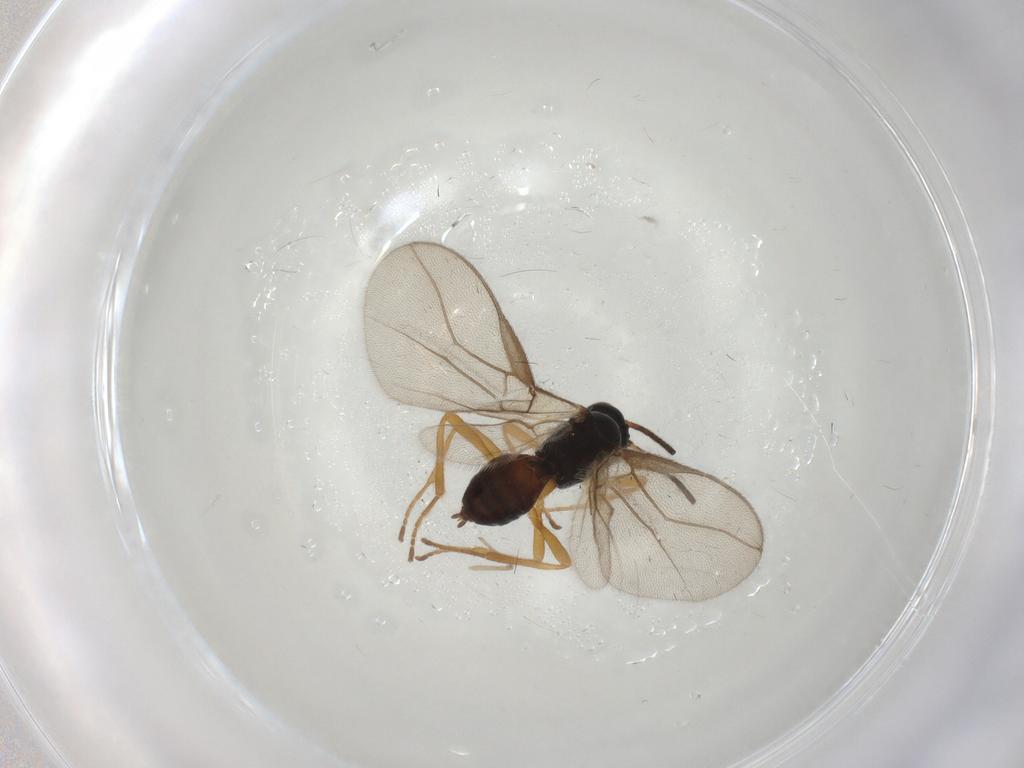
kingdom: Animalia
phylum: Arthropoda
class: Insecta
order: Hymenoptera
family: Braconidae
